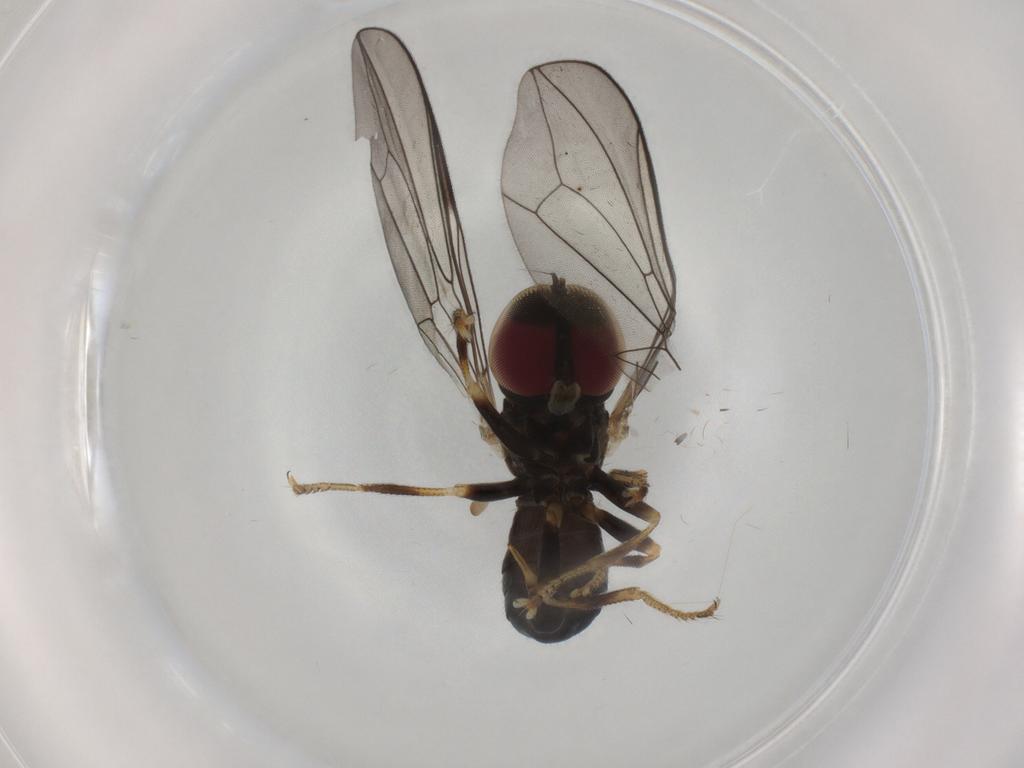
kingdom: Animalia
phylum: Arthropoda
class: Insecta
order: Diptera
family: Pipunculidae
